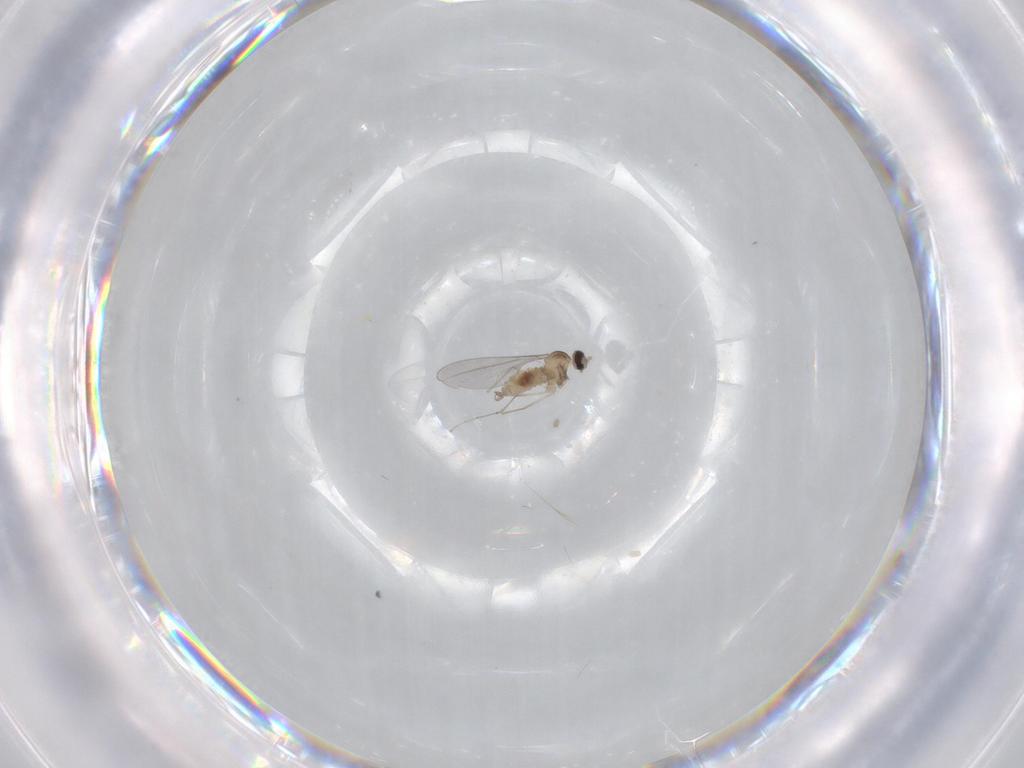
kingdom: Animalia
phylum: Arthropoda
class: Insecta
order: Diptera
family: Cecidomyiidae
